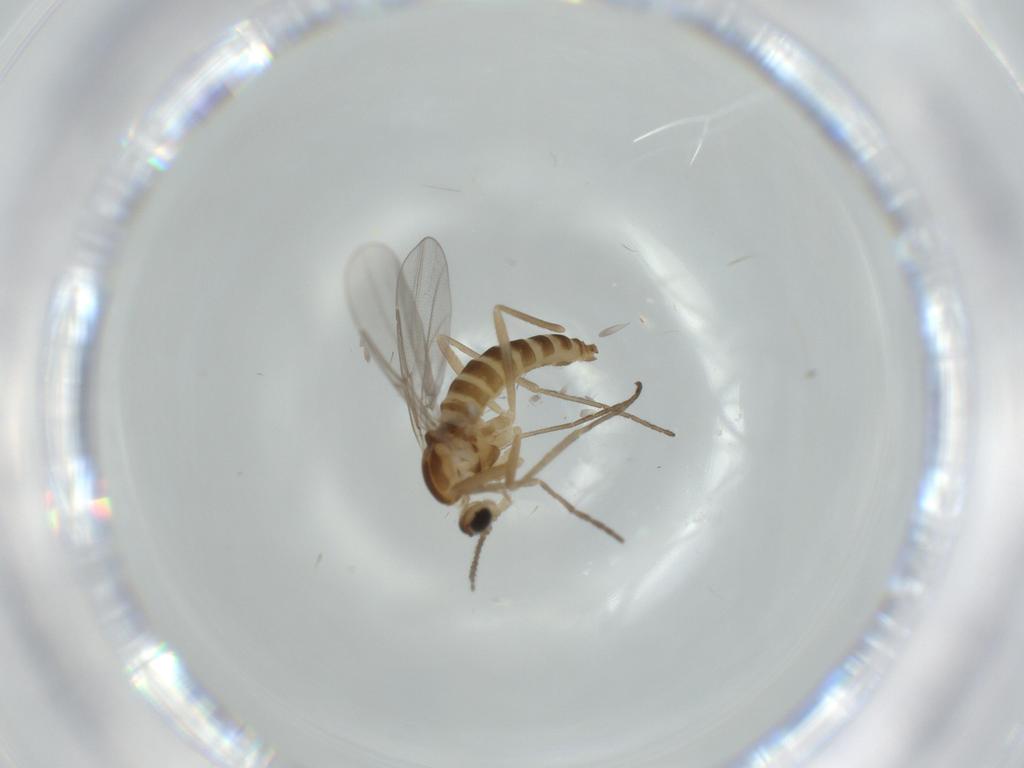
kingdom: Animalia
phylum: Arthropoda
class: Insecta
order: Diptera
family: Cecidomyiidae
